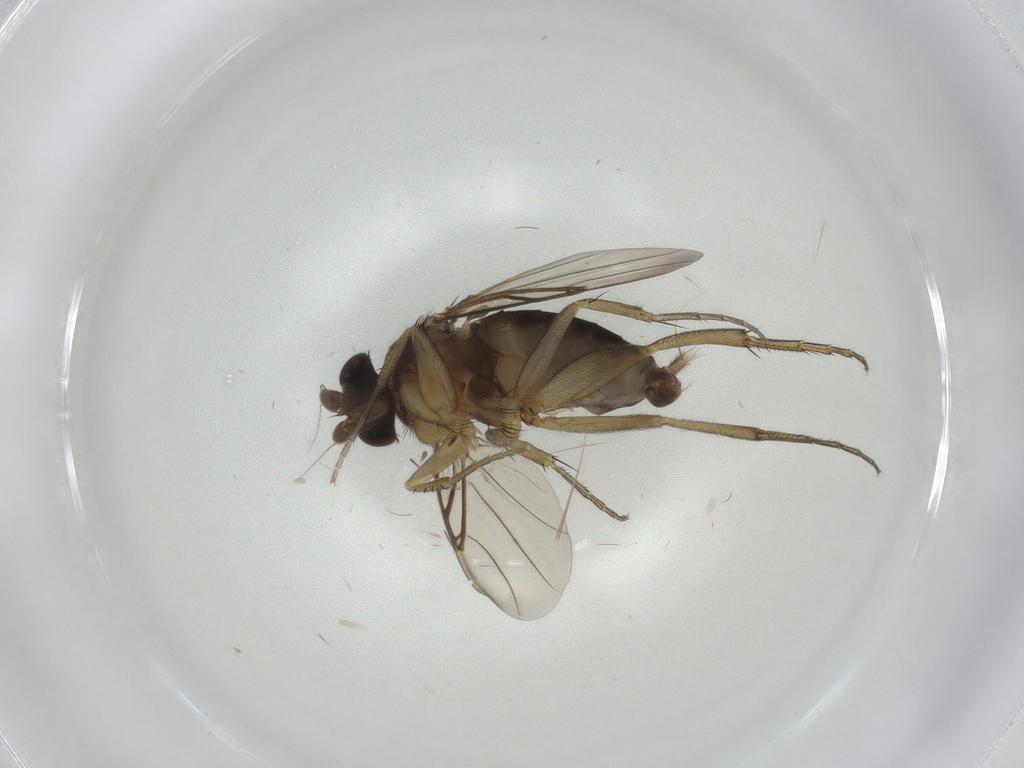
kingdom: Animalia
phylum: Arthropoda
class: Insecta
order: Diptera
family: Phoridae
